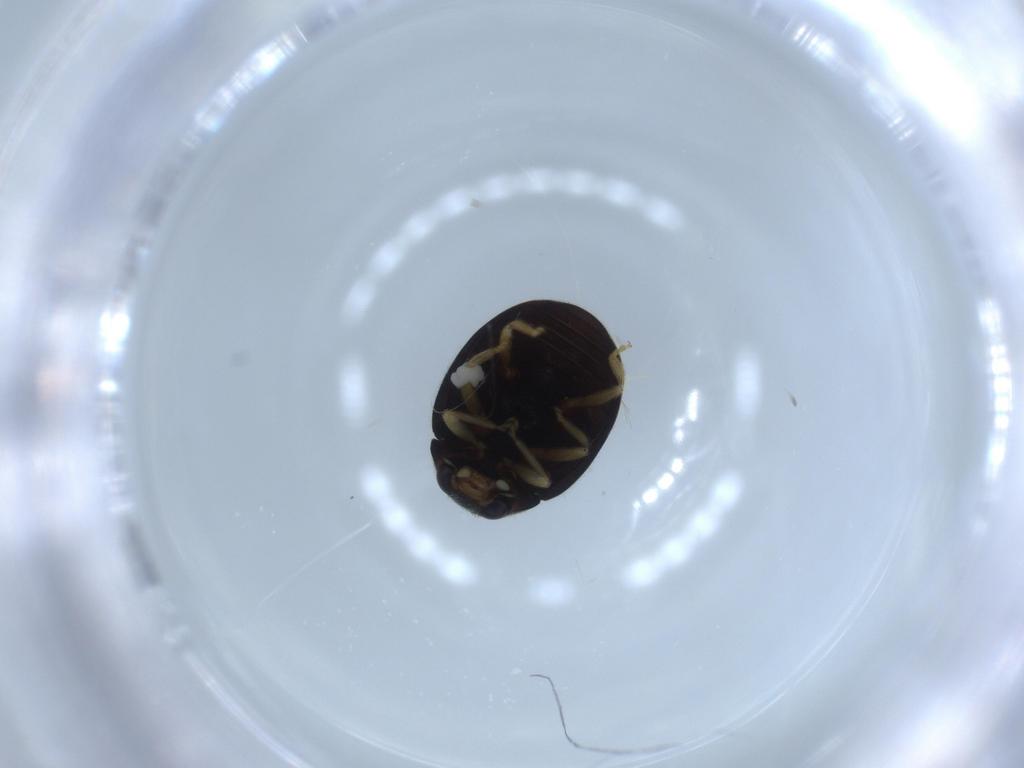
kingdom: Animalia
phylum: Arthropoda
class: Insecta
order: Coleoptera
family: Coccinellidae
